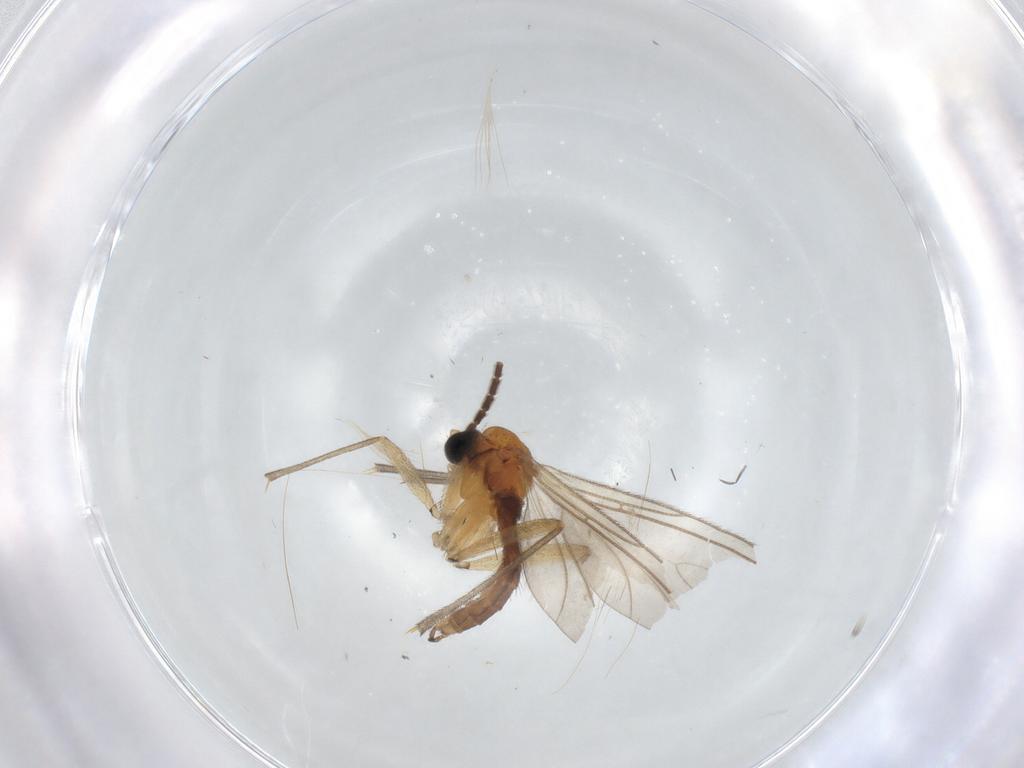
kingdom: Animalia
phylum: Arthropoda
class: Insecta
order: Diptera
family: Sciaridae
